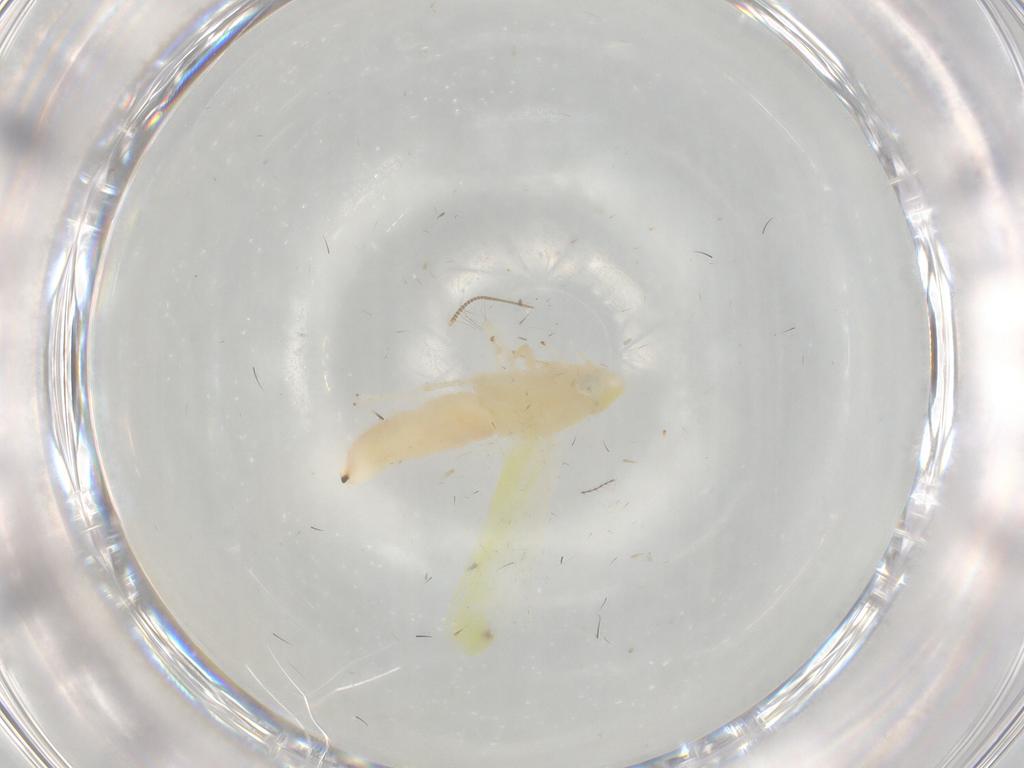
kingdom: Animalia
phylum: Arthropoda
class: Insecta
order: Hemiptera
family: Cicadellidae
